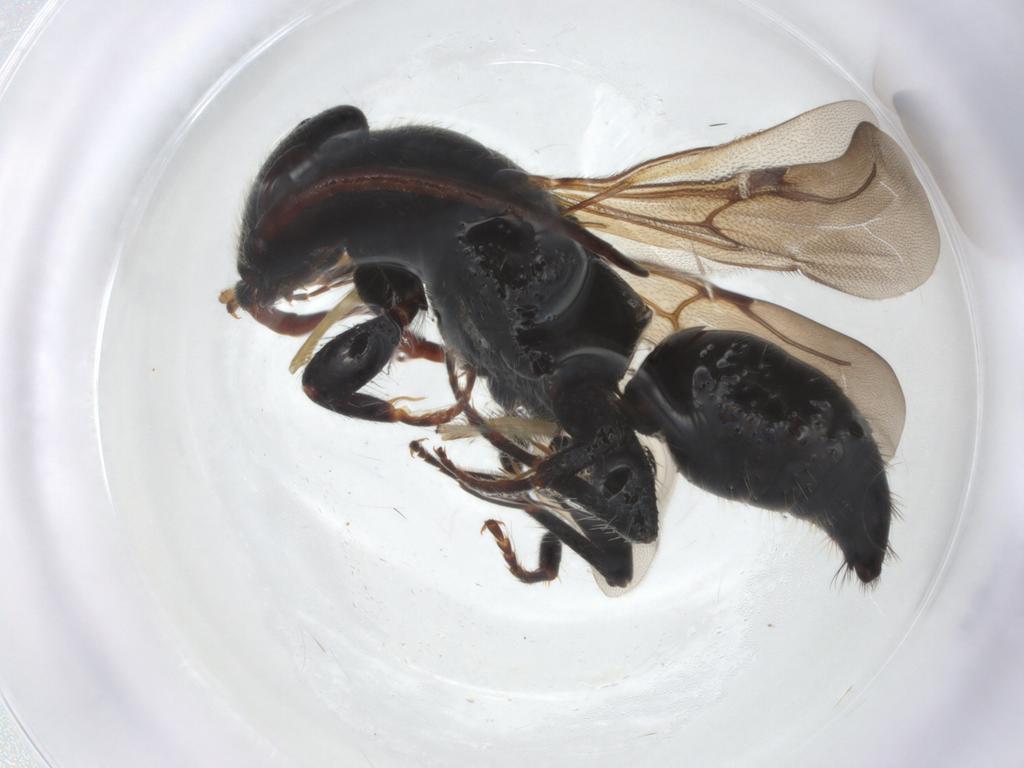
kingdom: Animalia
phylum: Arthropoda
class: Insecta
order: Hymenoptera
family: Bethylidae
